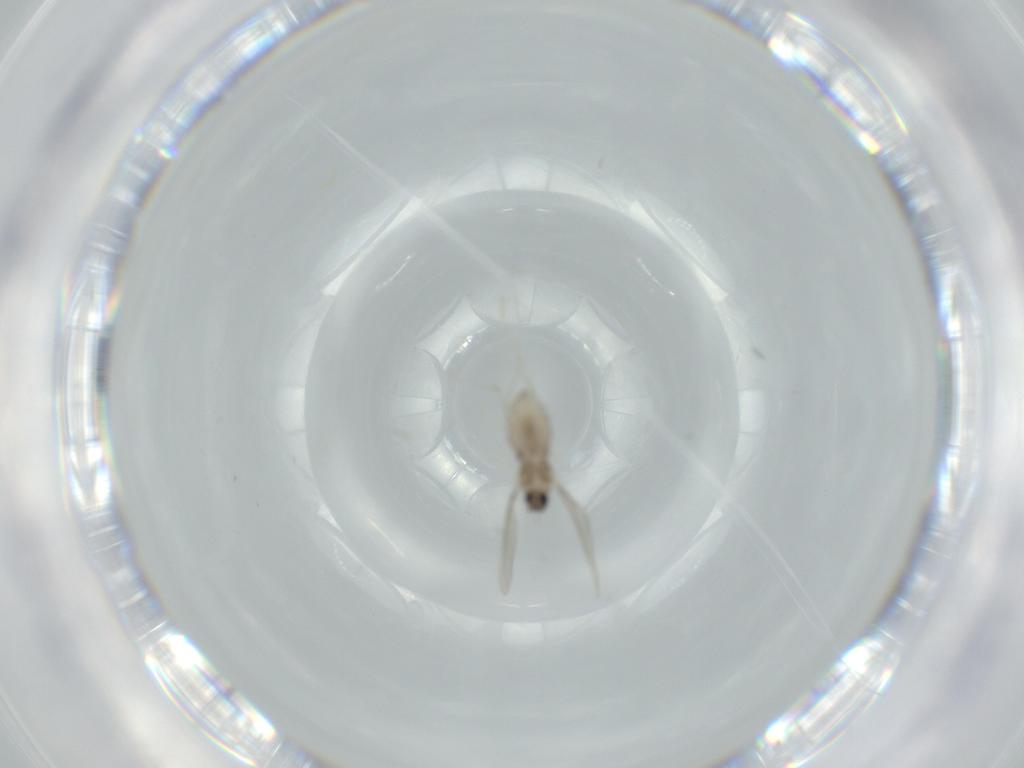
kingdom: Animalia
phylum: Arthropoda
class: Insecta
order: Diptera
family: Cecidomyiidae
